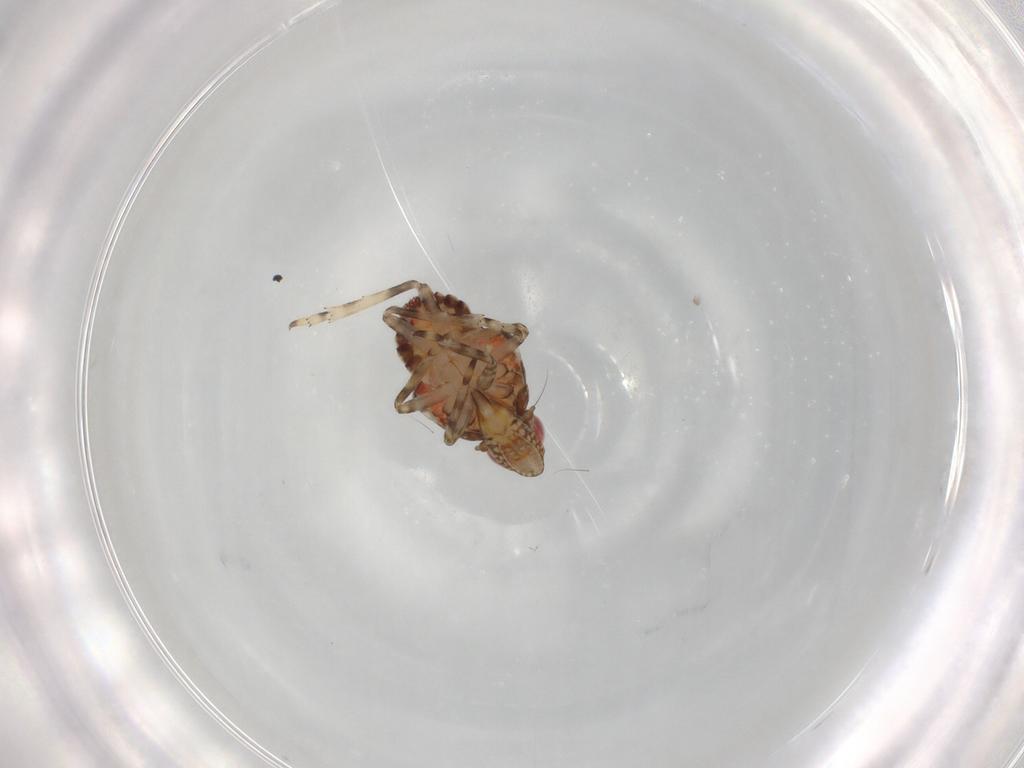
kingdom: Animalia
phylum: Arthropoda
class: Insecta
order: Hemiptera
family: Tropiduchidae
